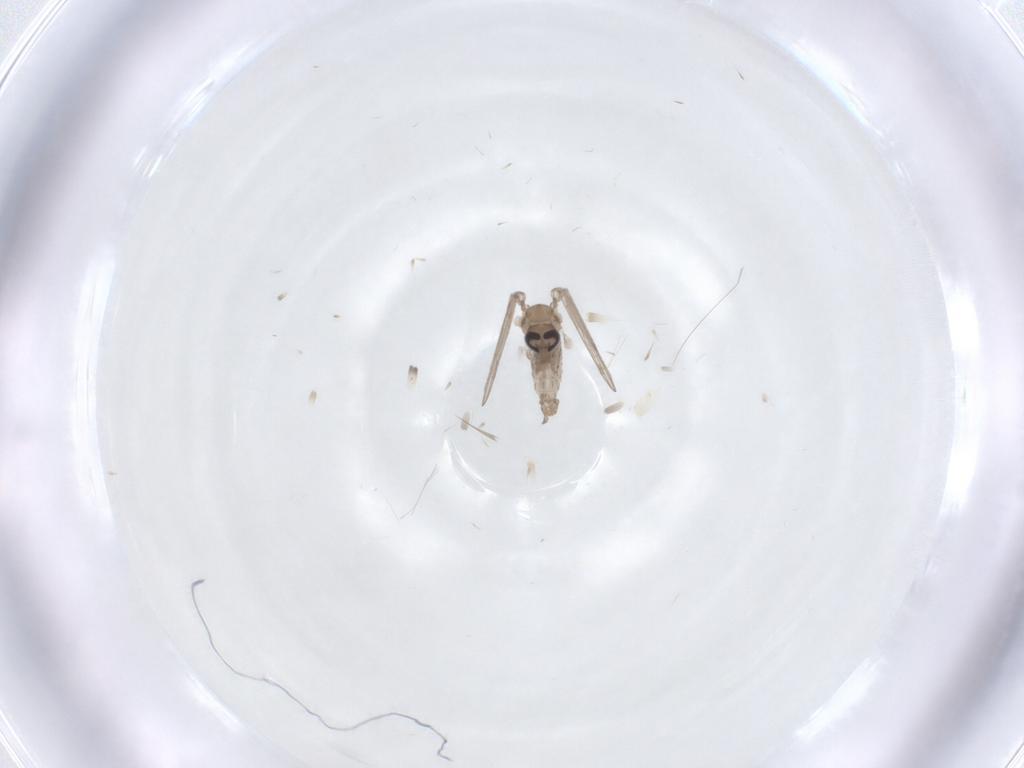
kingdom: Animalia
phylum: Arthropoda
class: Insecta
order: Diptera
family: Psychodidae
